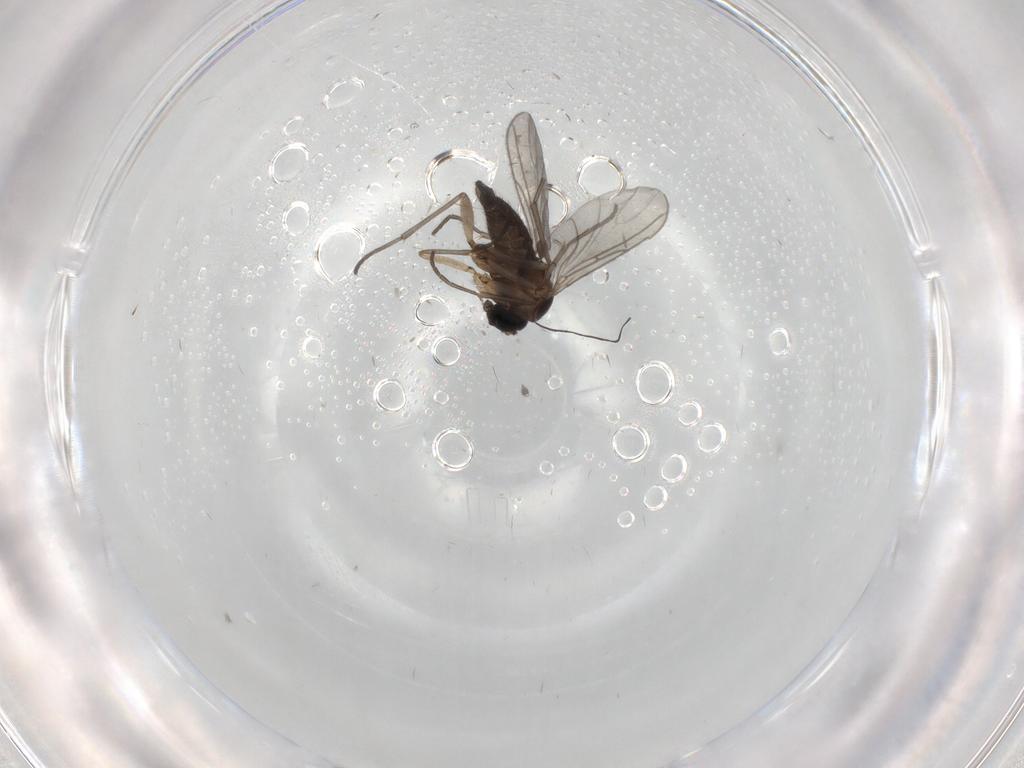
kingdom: Animalia
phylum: Arthropoda
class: Insecta
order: Diptera
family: Sciaridae
